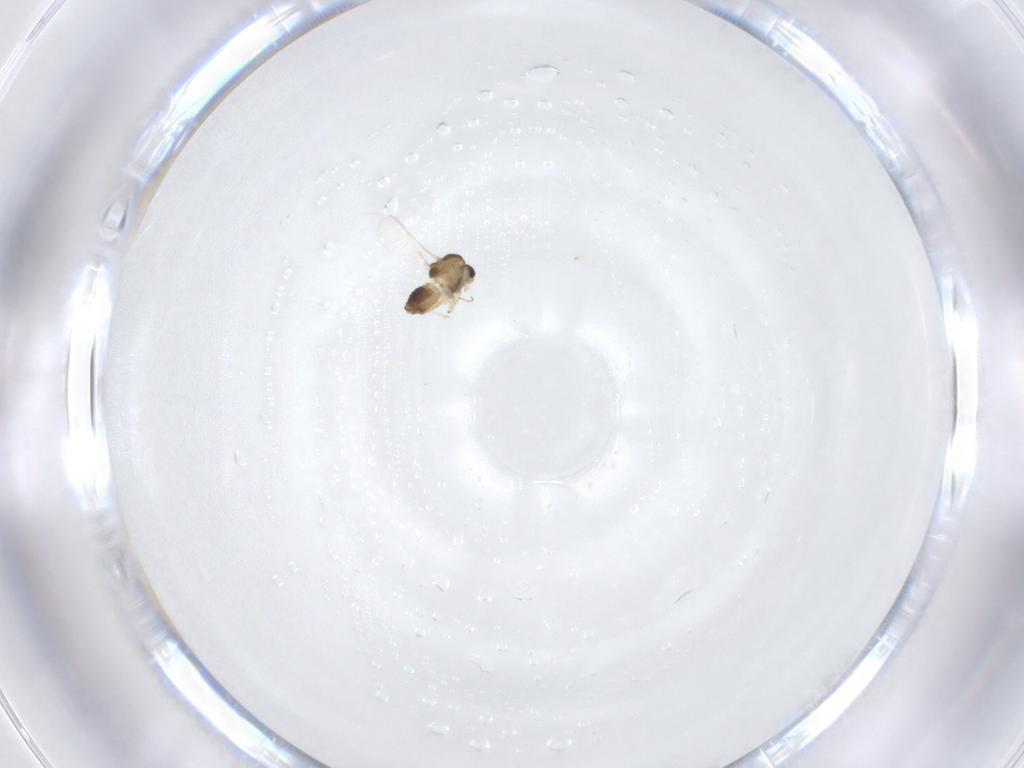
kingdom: Animalia
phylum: Arthropoda
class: Insecta
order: Diptera
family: Chironomidae
